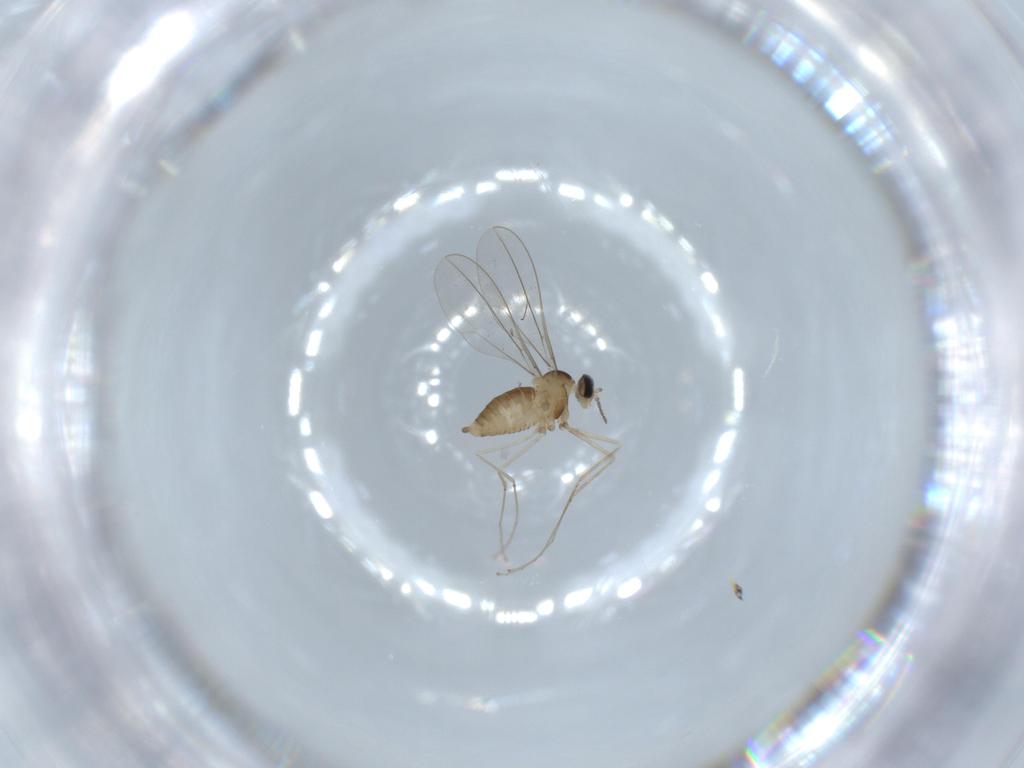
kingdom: Animalia
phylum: Arthropoda
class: Insecta
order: Diptera
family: Cecidomyiidae
